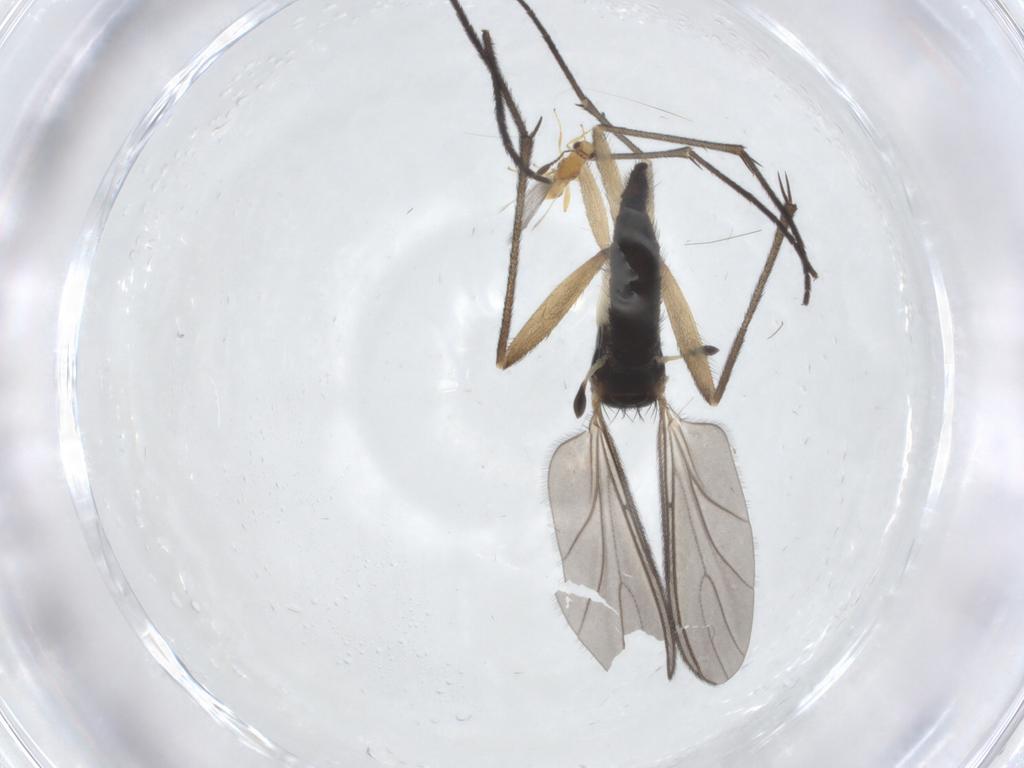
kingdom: Animalia
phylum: Arthropoda
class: Insecta
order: Diptera
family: Sciaridae
